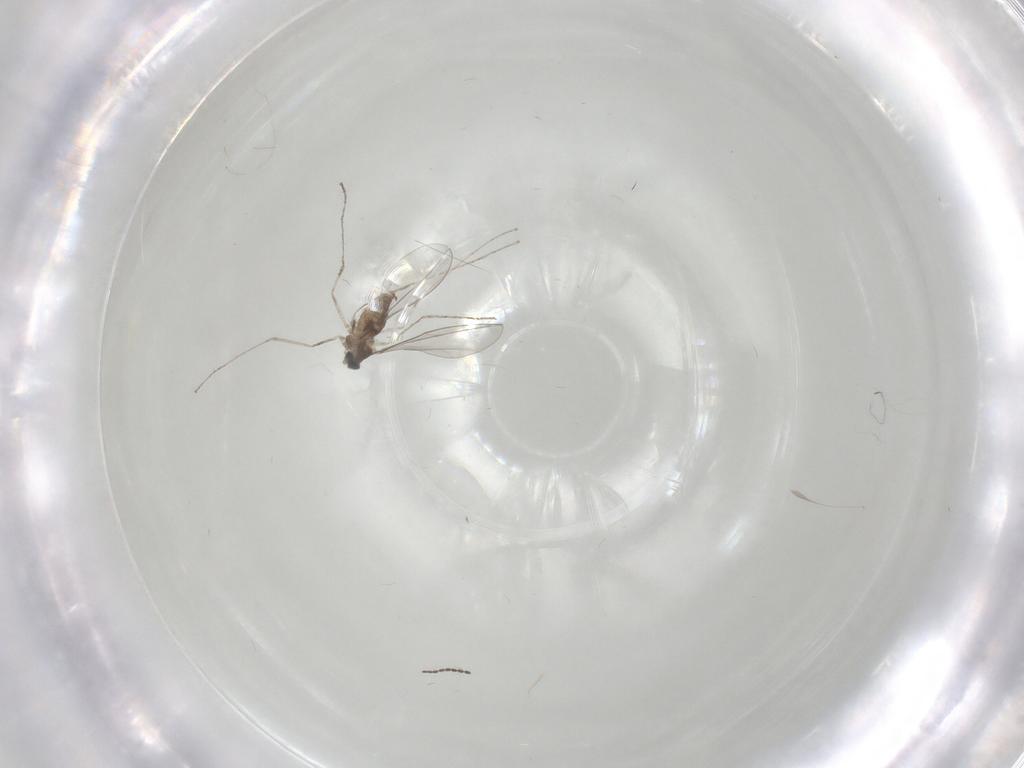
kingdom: Animalia
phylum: Arthropoda
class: Insecta
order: Diptera
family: Cecidomyiidae
